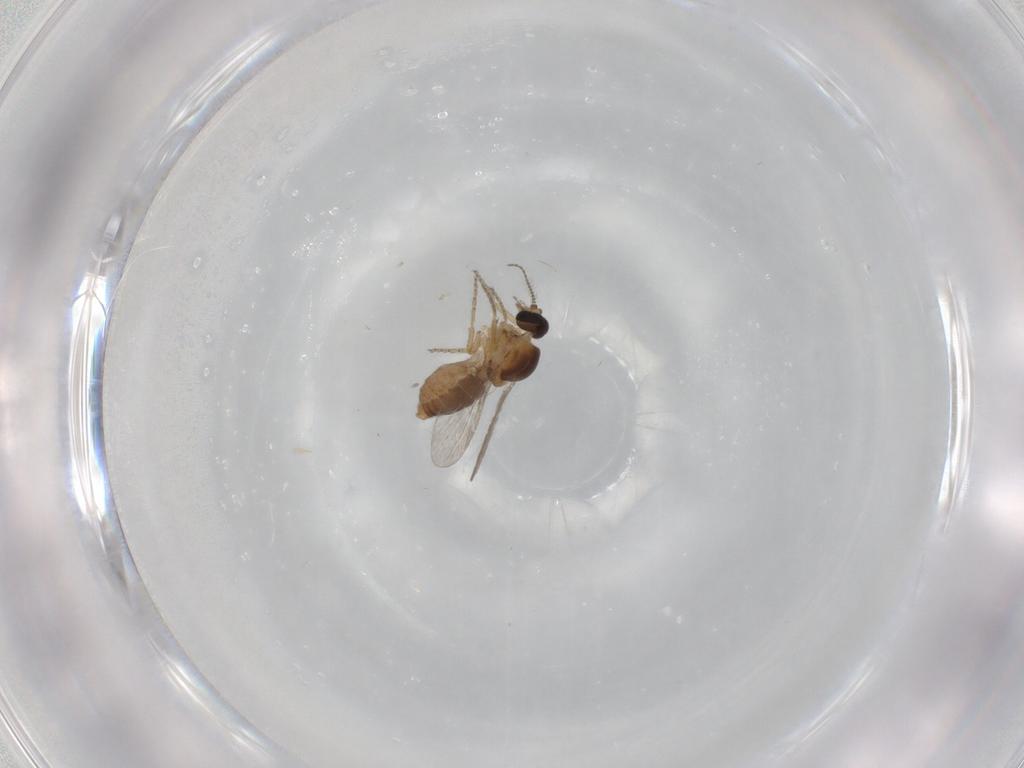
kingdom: Animalia
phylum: Arthropoda
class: Insecta
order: Diptera
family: Ceratopogonidae
